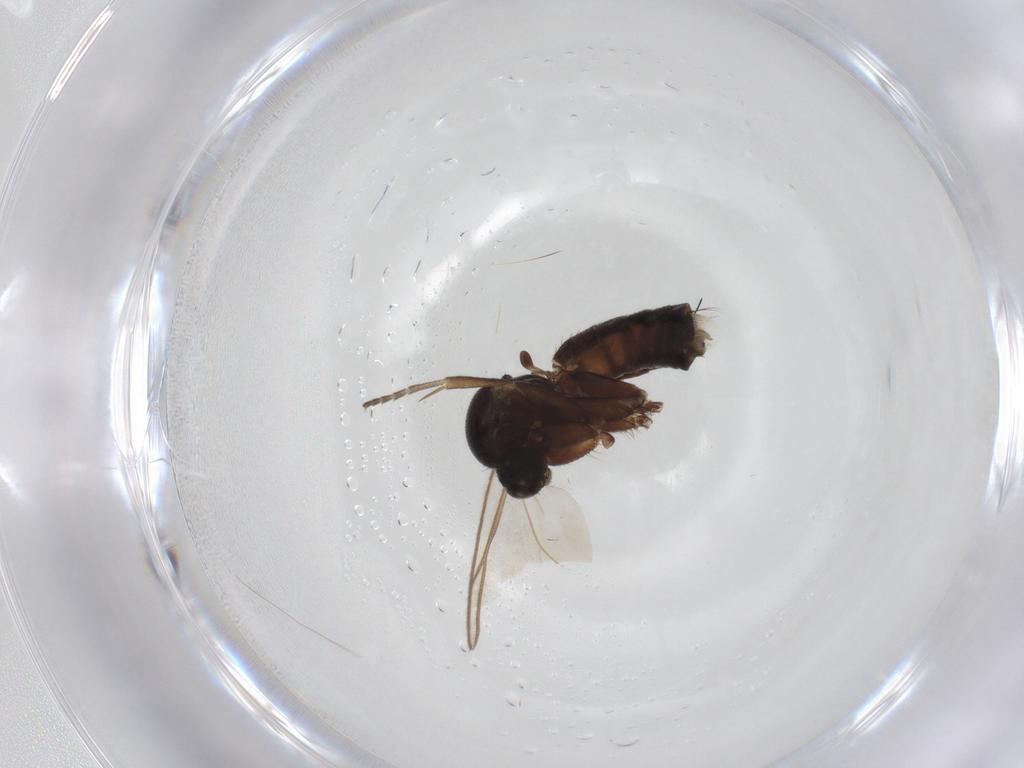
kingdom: Animalia
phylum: Arthropoda
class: Insecta
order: Diptera
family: Mycetophilidae
